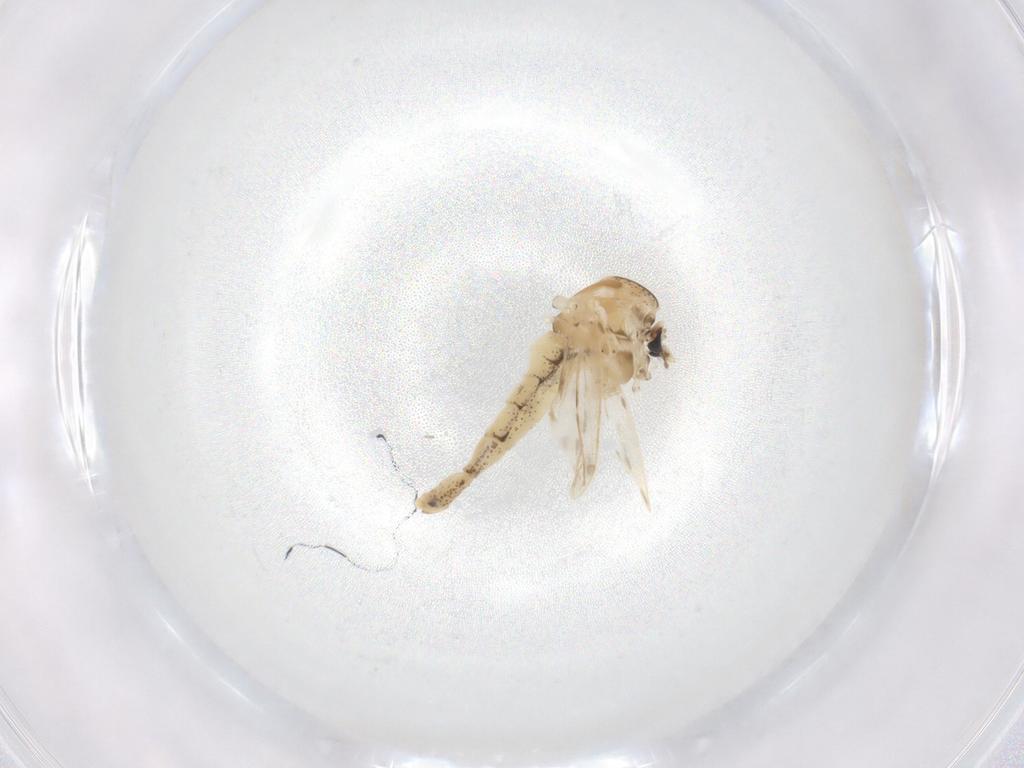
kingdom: Animalia
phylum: Arthropoda
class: Insecta
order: Diptera
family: Chaoboridae
